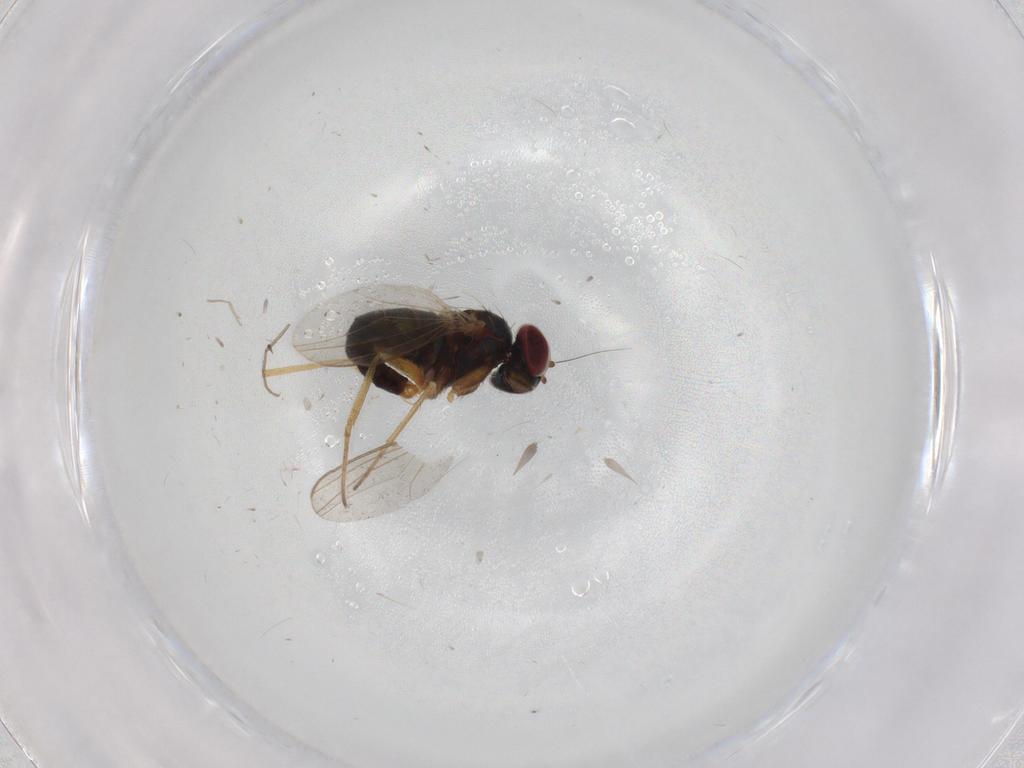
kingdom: Animalia
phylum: Arthropoda
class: Insecta
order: Diptera
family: Dolichopodidae
